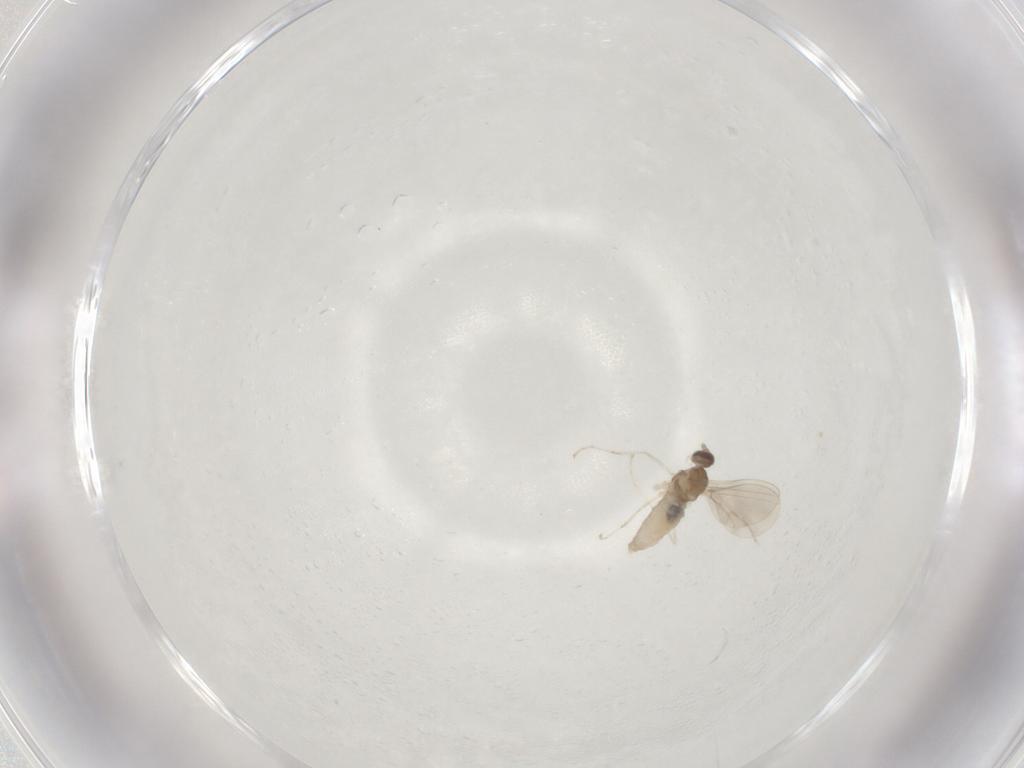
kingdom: Animalia
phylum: Arthropoda
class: Insecta
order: Diptera
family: Cecidomyiidae
